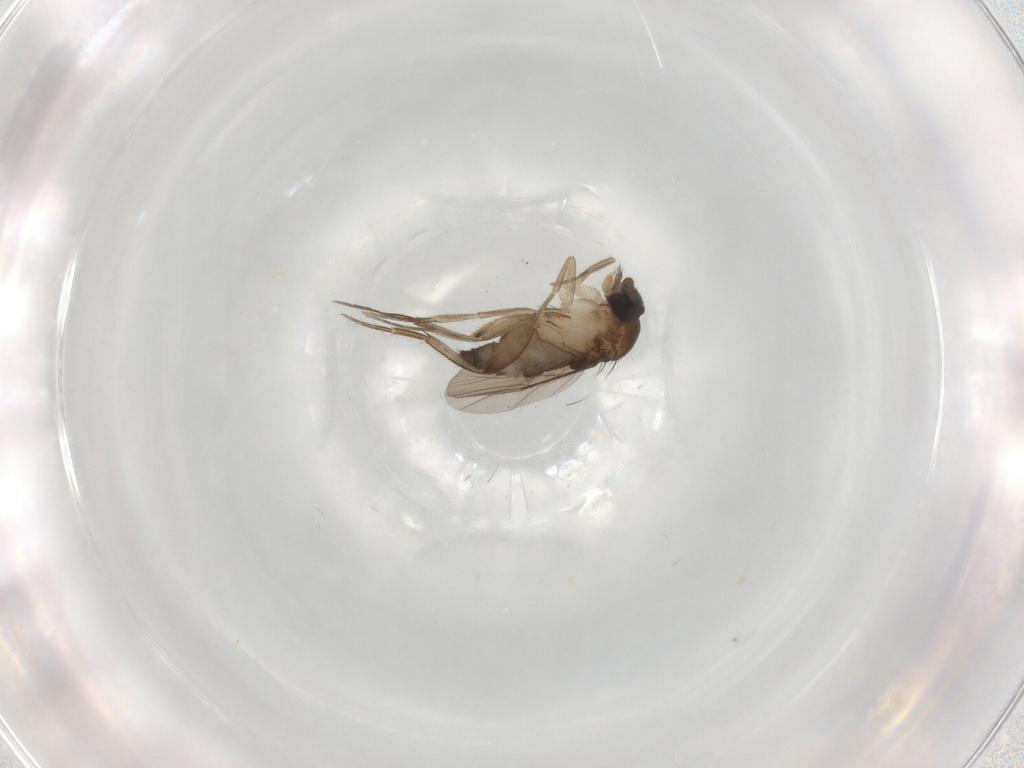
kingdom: Animalia
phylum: Arthropoda
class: Insecta
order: Diptera
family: Phoridae
